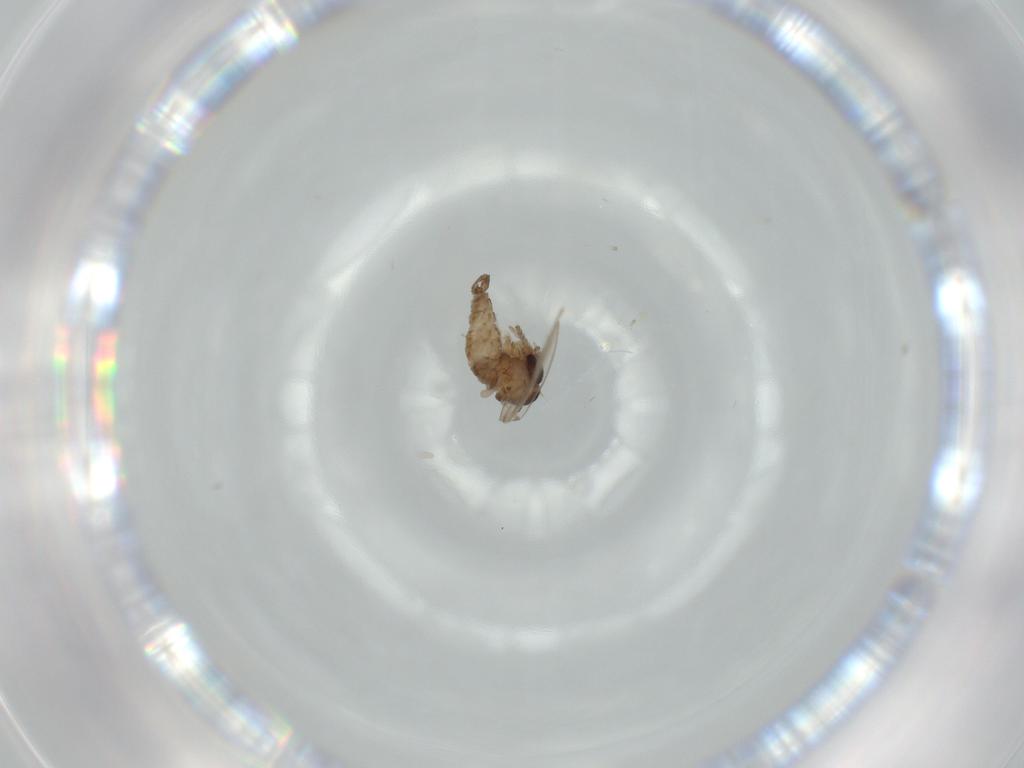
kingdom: Animalia
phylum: Arthropoda
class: Insecta
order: Diptera
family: Psychodidae
